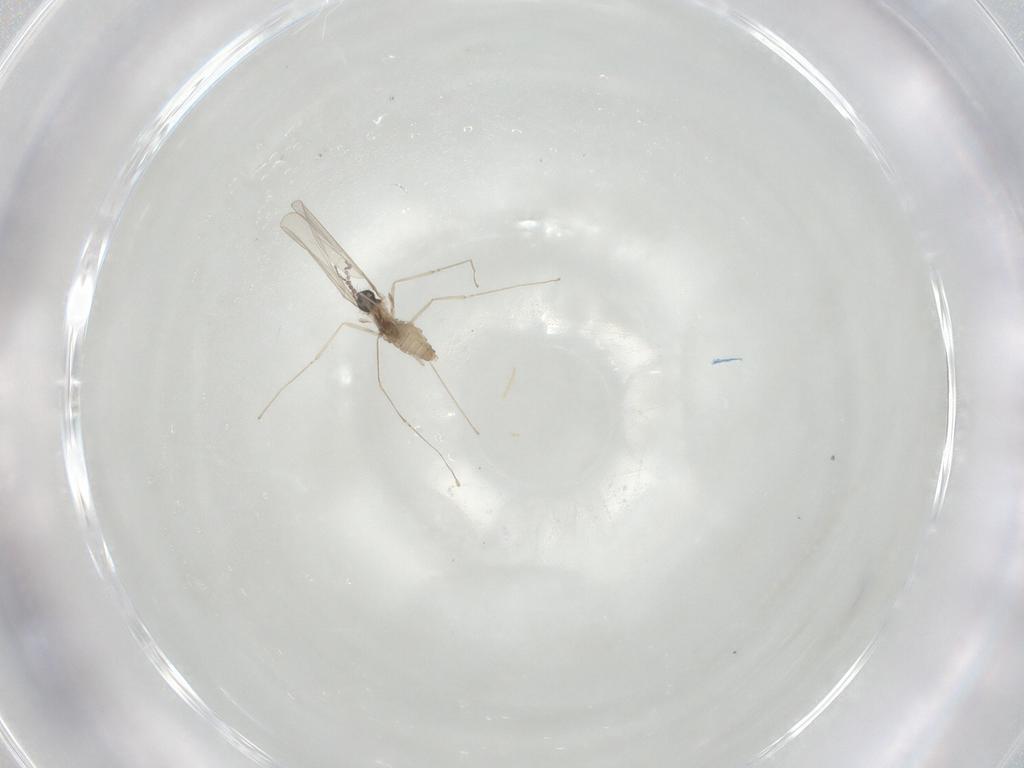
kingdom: Animalia
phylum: Arthropoda
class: Insecta
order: Diptera
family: Cecidomyiidae
